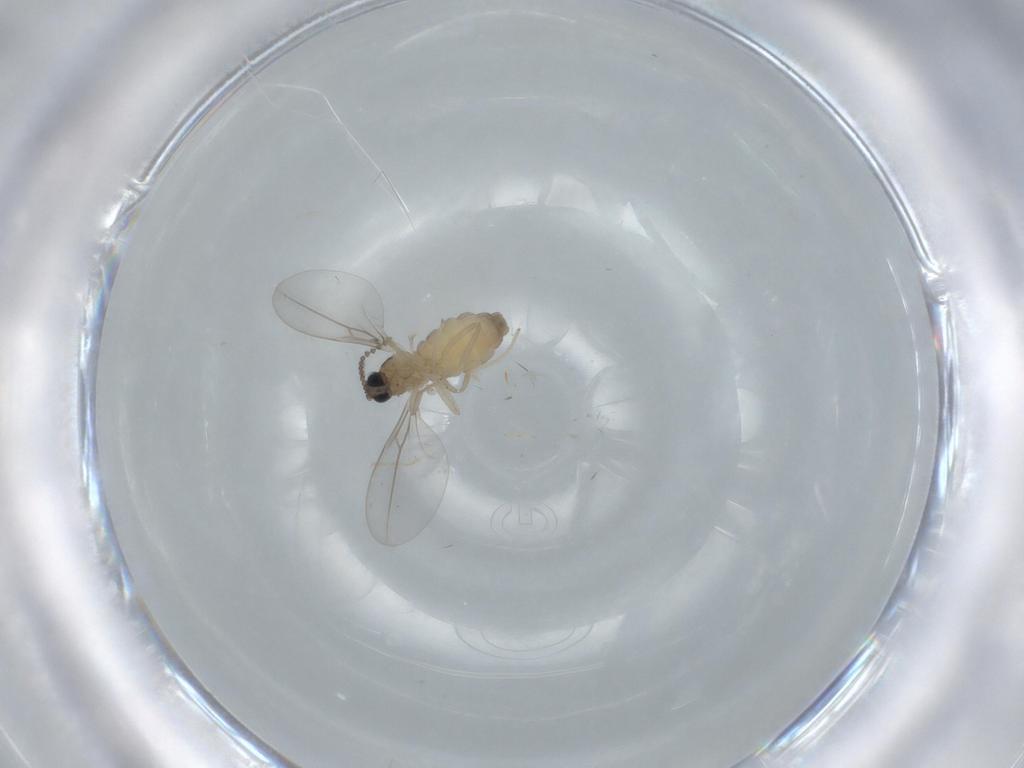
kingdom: Animalia
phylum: Arthropoda
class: Insecta
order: Diptera
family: Cecidomyiidae
